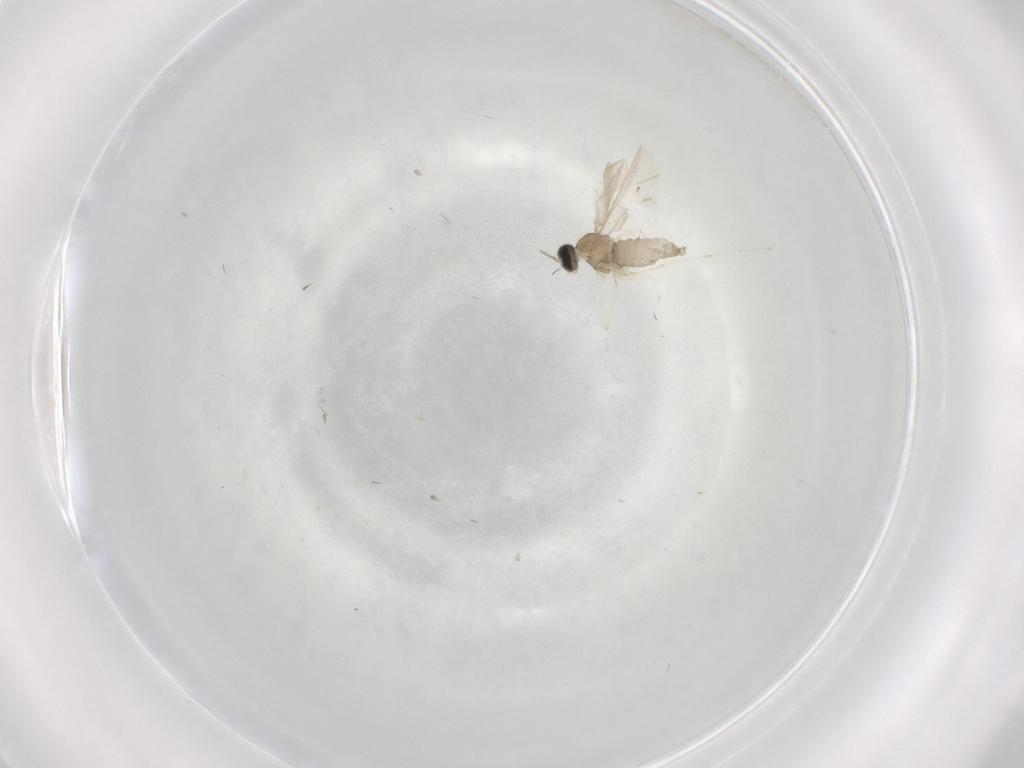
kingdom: Animalia
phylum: Arthropoda
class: Insecta
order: Diptera
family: Cecidomyiidae
